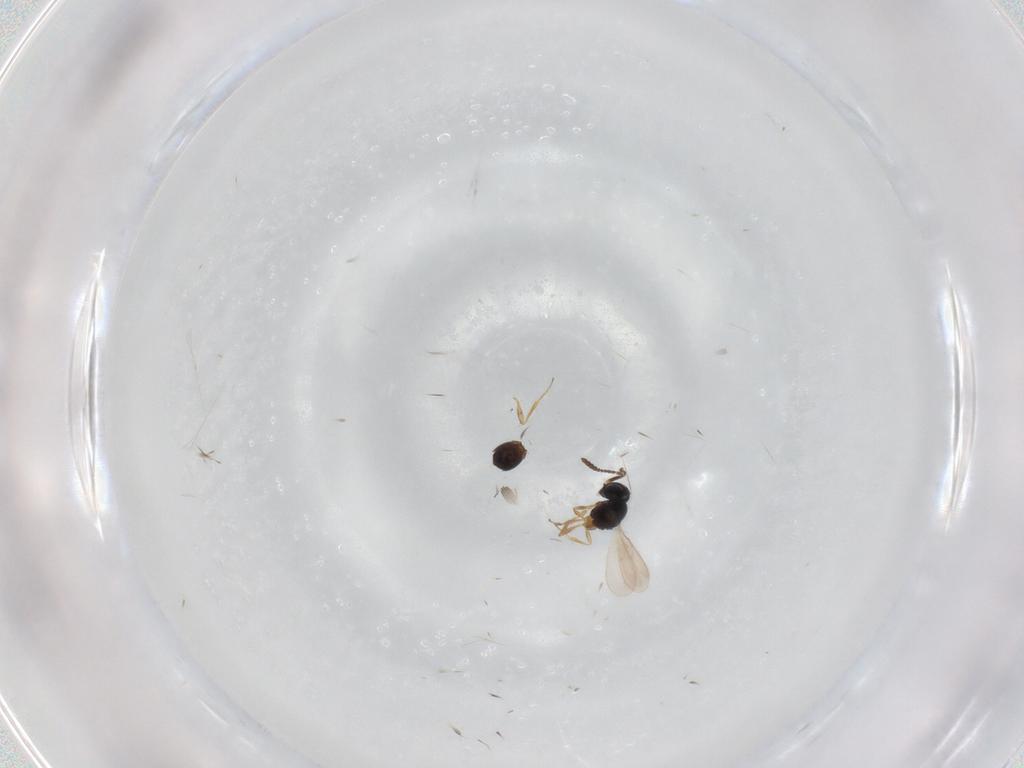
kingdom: Animalia
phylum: Arthropoda
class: Insecta
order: Hymenoptera
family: Scelionidae
